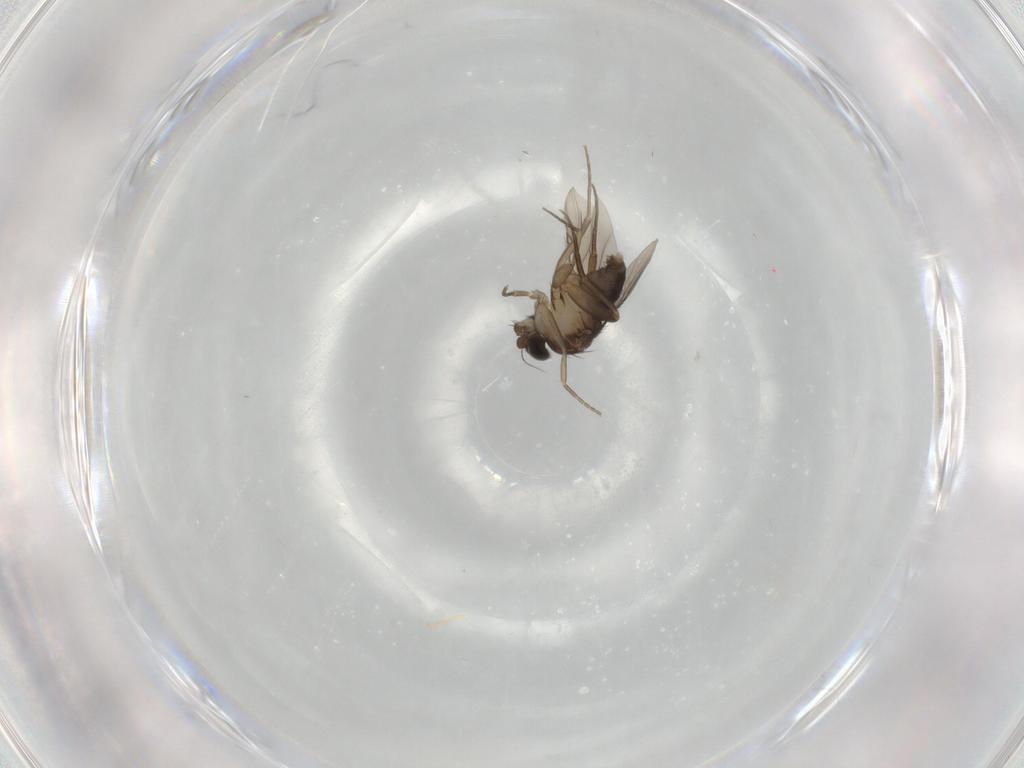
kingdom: Animalia
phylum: Arthropoda
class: Insecta
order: Diptera
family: Phoridae
